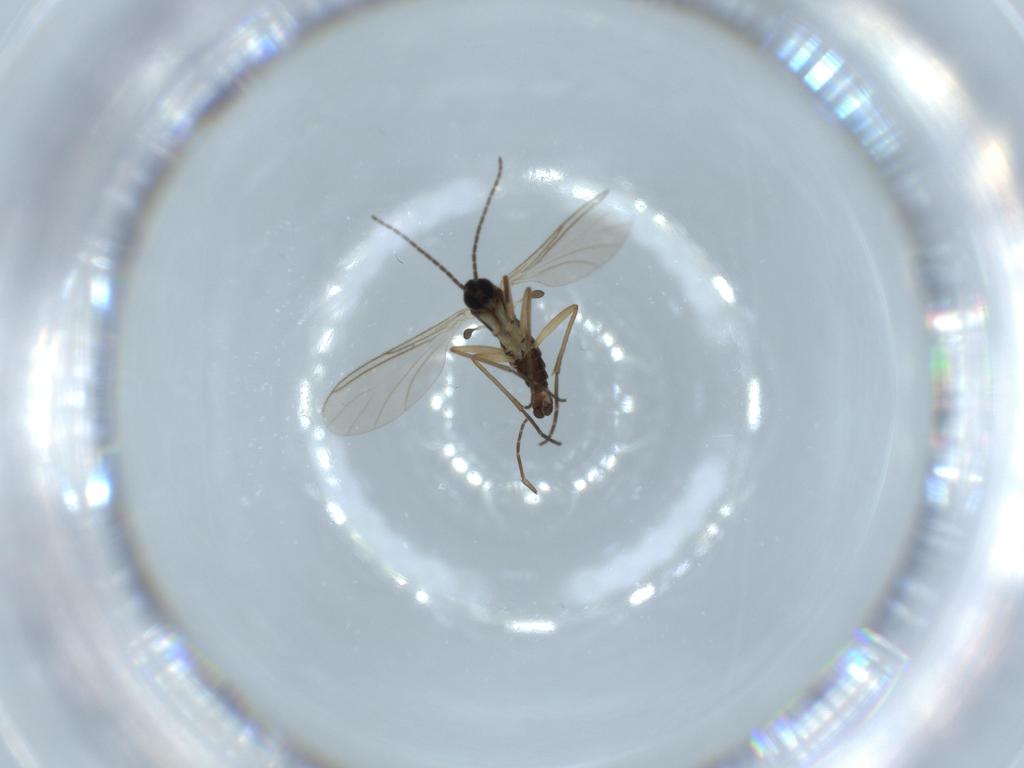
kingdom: Animalia
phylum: Arthropoda
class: Insecta
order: Diptera
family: Sciaridae
